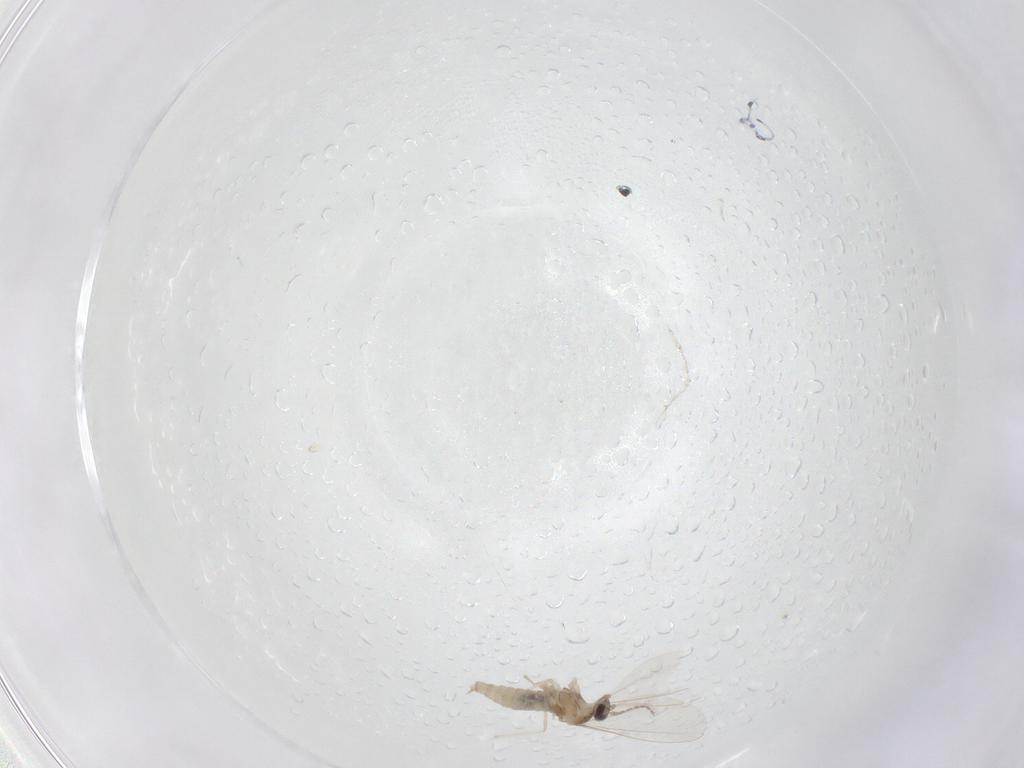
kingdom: Animalia
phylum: Arthropoda
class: Insecta
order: Diptera
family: Cecidomyiidae
